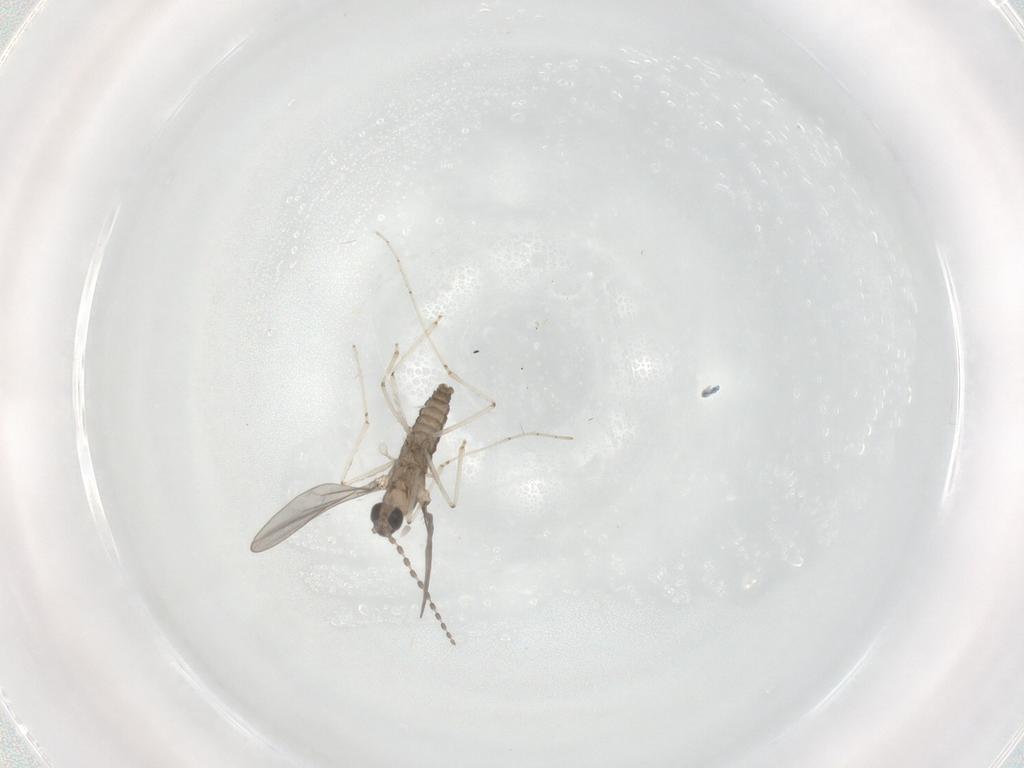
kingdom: Animalia
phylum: Arthropoda
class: Insecta
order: Diptera
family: Cecidomyiidae
